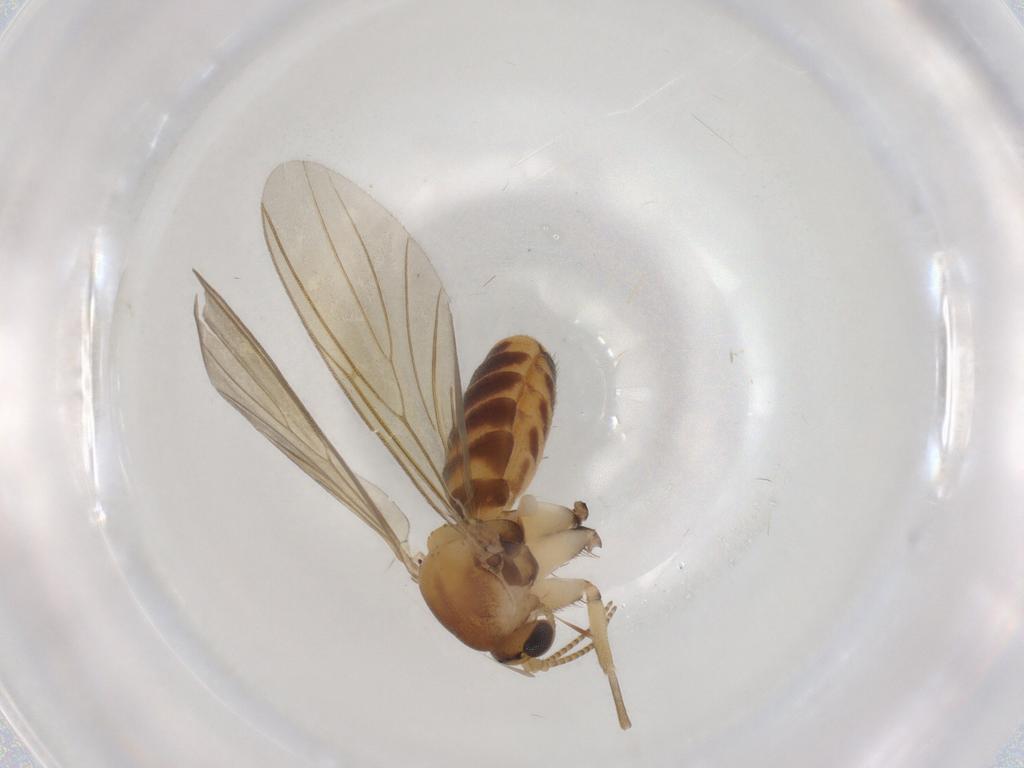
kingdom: Animalia
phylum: Arthropoda
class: Insecta
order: Diptera
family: Mycetophilidae
